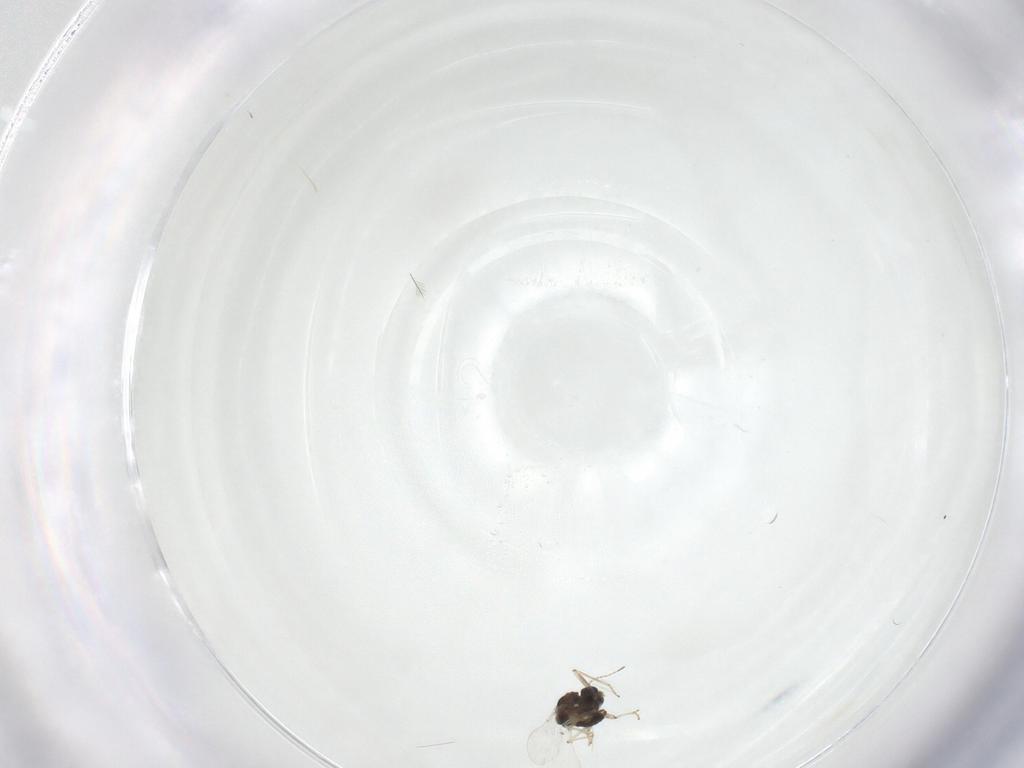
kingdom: Animalia
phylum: Arthropoda
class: Insecta
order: Diptera
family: Chironomidae
